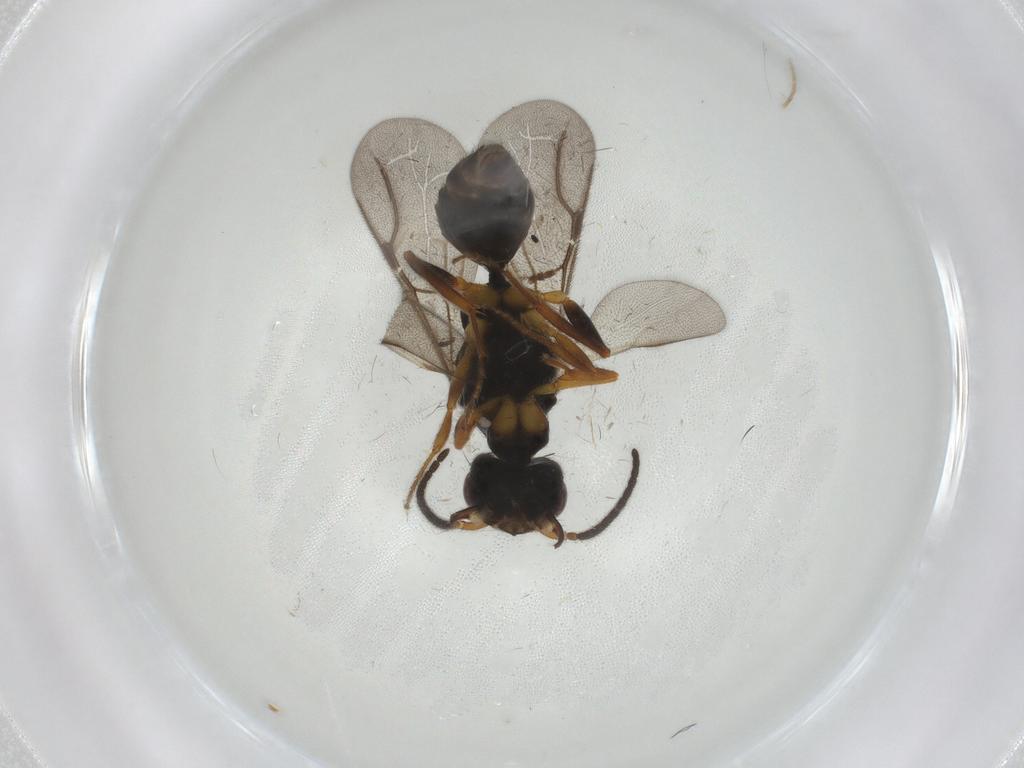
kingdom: Animalia
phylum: Arthropoda
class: Insecta
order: Hymenoptera
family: Bethylidae
